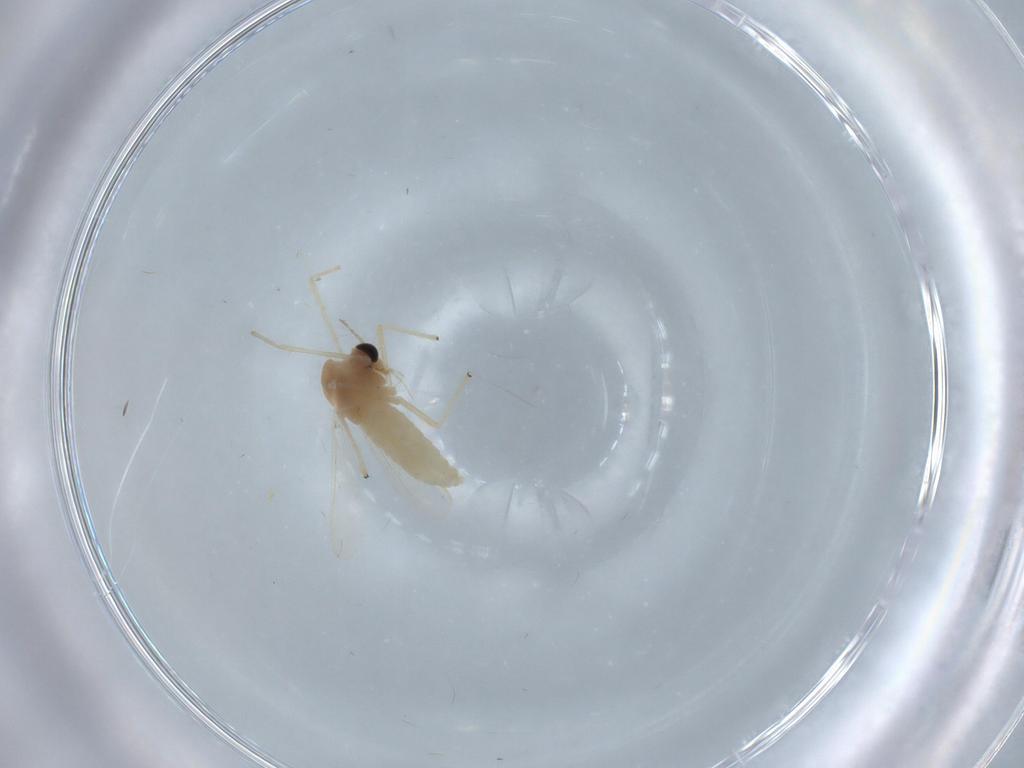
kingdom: Animalia
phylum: Arthropoda
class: Insecta
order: Diptera
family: Chironomidae
